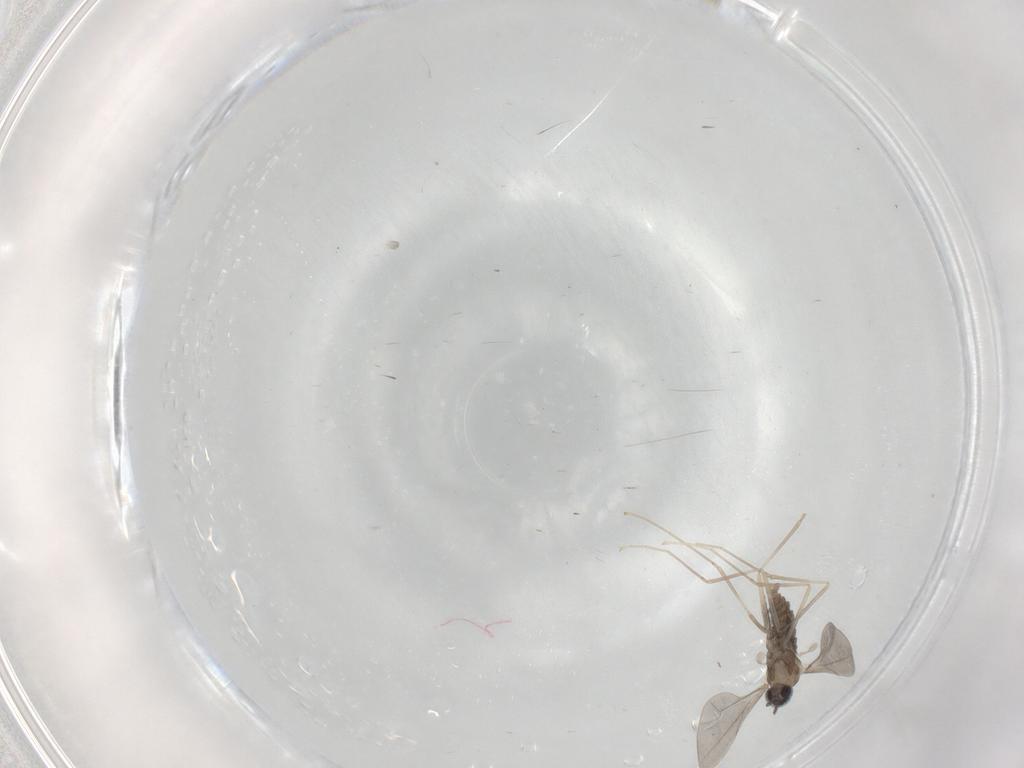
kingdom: Animalia
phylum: Arthropoda
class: Insecta
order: Diptera
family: Cecidomyiidae
